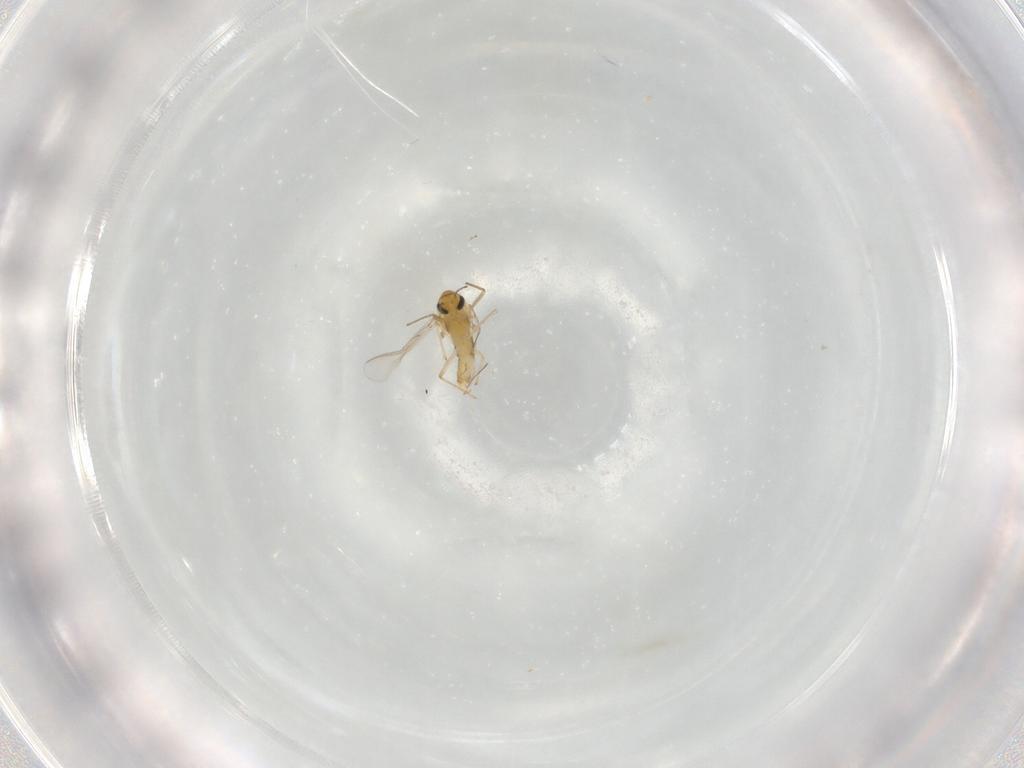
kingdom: Animalia
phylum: Arthropoda
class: Insecta
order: Diptera
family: Chironomidae
